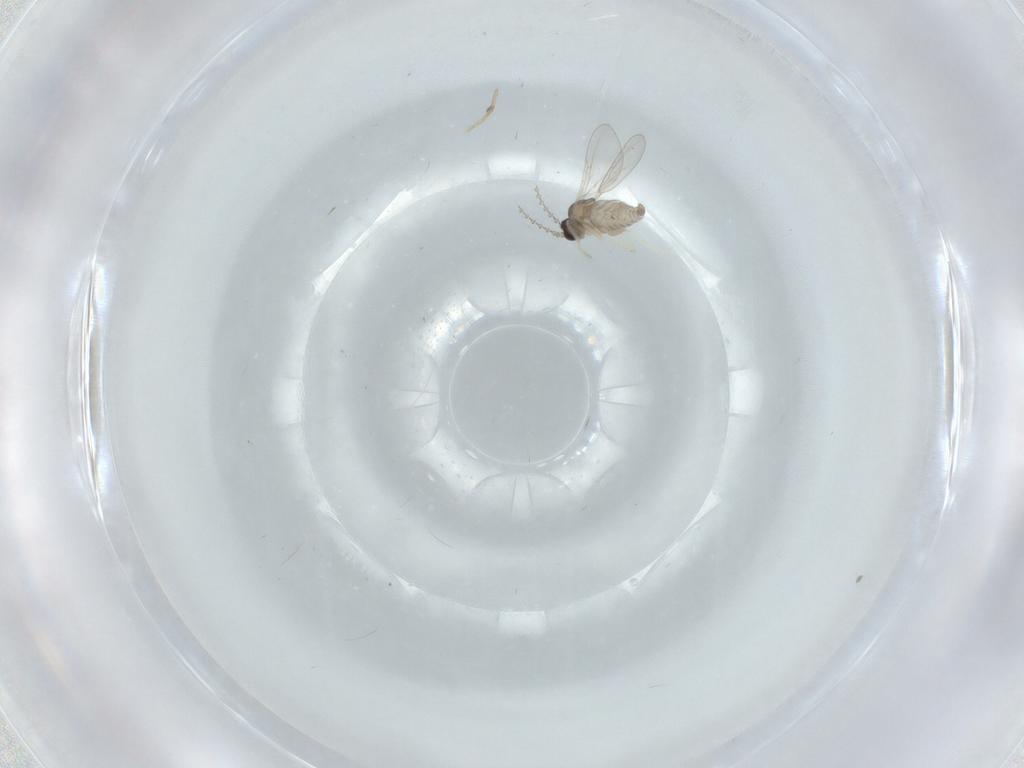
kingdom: Animalia
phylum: Arthropoda
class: Insecta
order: Diptera
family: Cecidomyiidae
